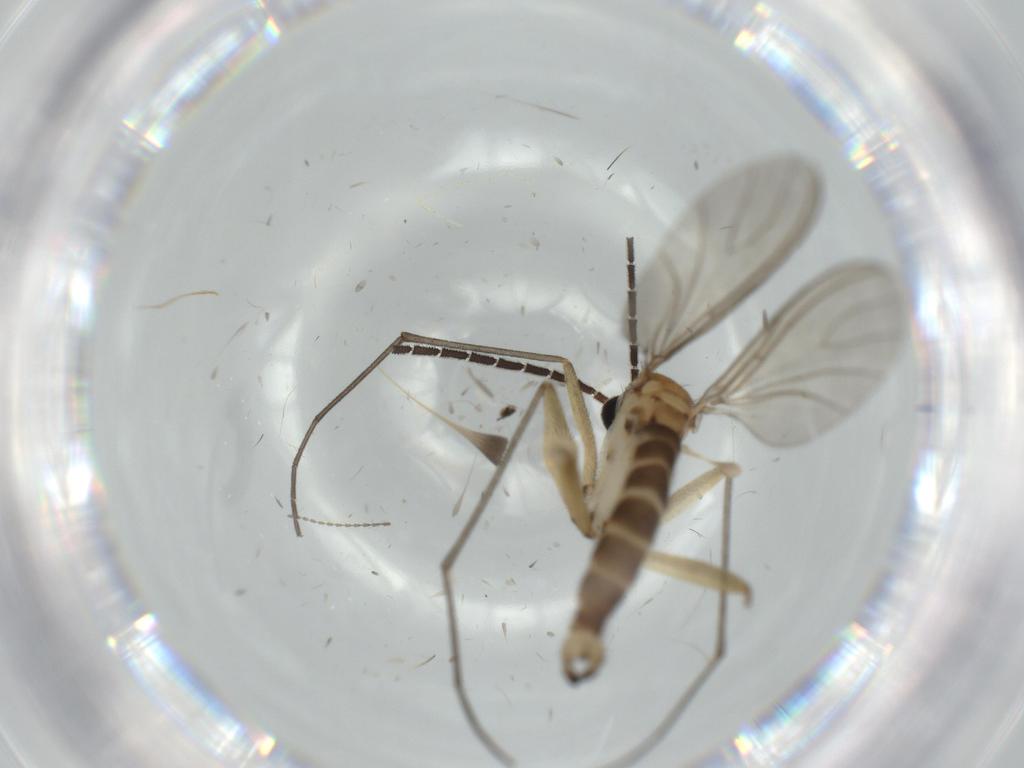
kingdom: Animalia
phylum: Arthropoda
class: Insecta
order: Diptera
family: Sciaridae
